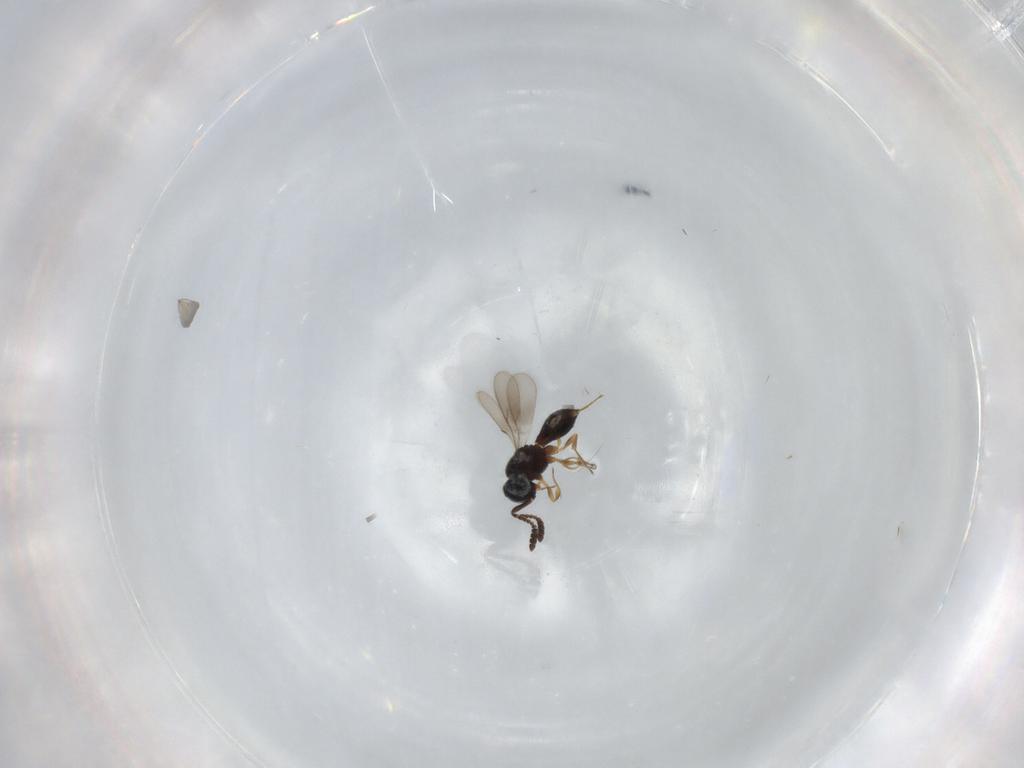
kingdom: Animalia
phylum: Arthropoda
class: Insecta
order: Hymenoptera
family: Scelionidae
